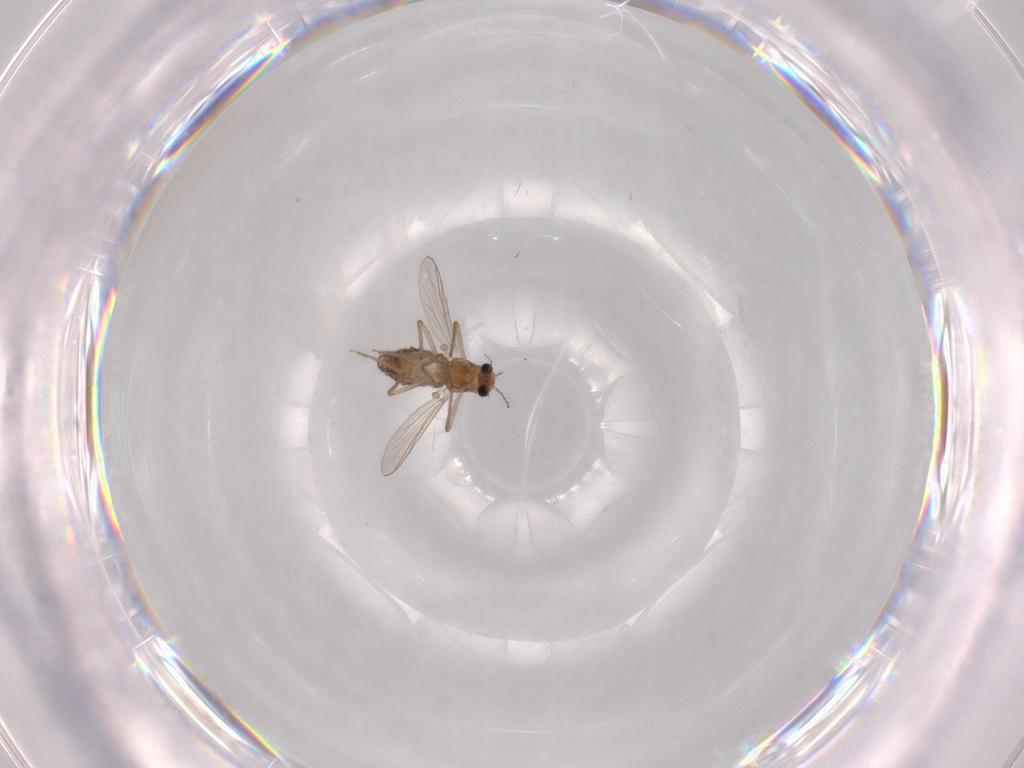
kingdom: Animalia
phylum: Arthropoda
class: Insecta
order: Diptera
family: Chironomidae
